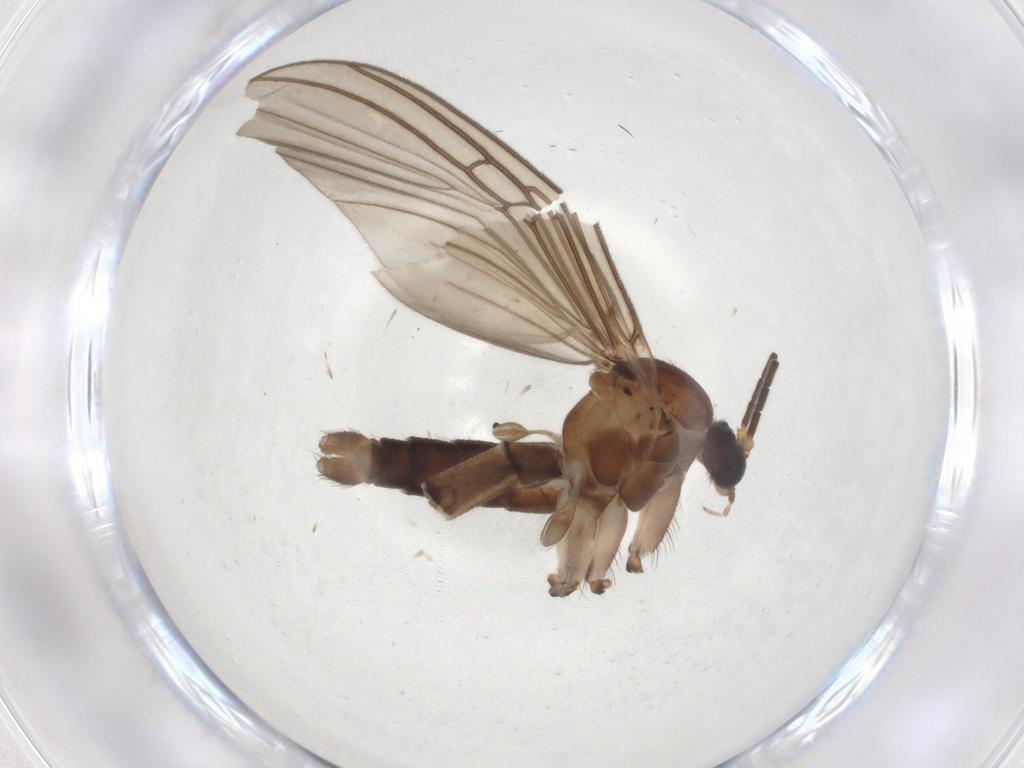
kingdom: Animalia
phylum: Arthropoda
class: Insecta
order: Diptera
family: Mycetophilidae
